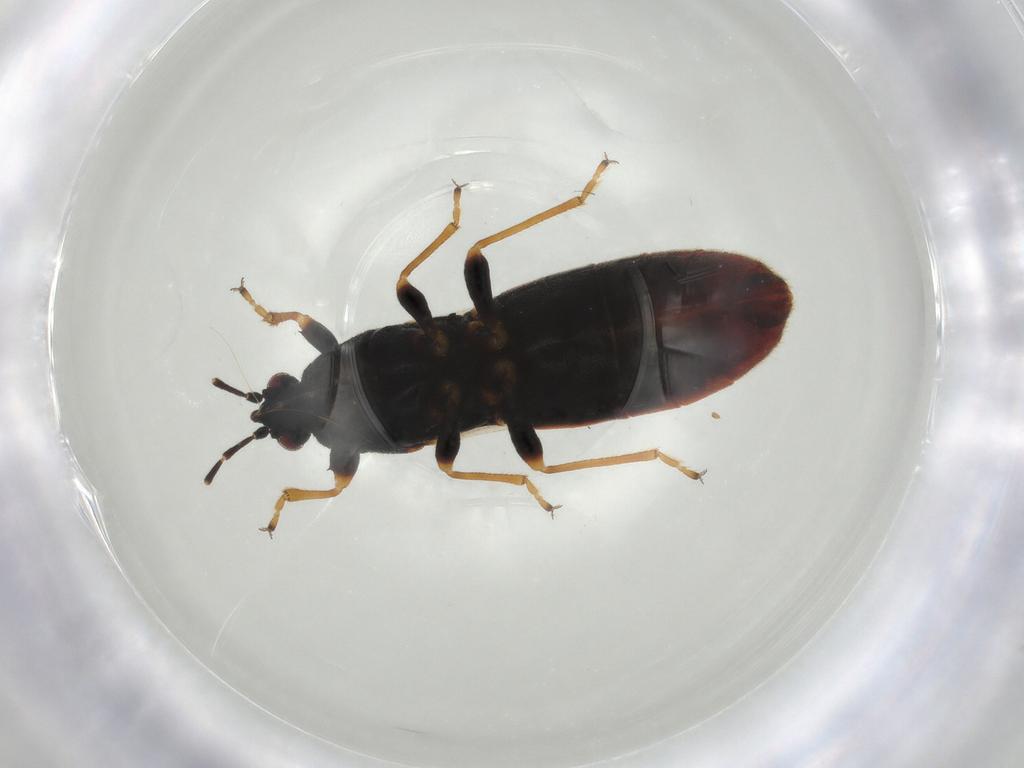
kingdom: Animalia
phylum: Arthropoda
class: Insecta
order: Hemiptera
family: Blissidae
